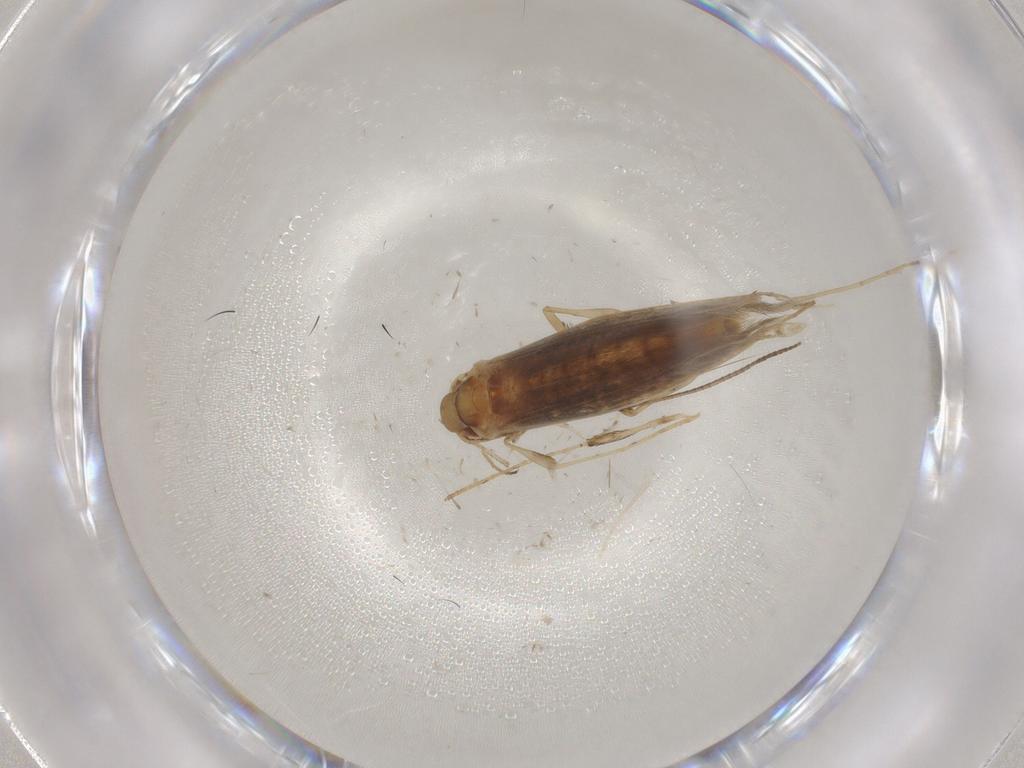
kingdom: Animalia
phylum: Arthropoda
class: Insecta
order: Lepidoptera
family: Gracillariidae
